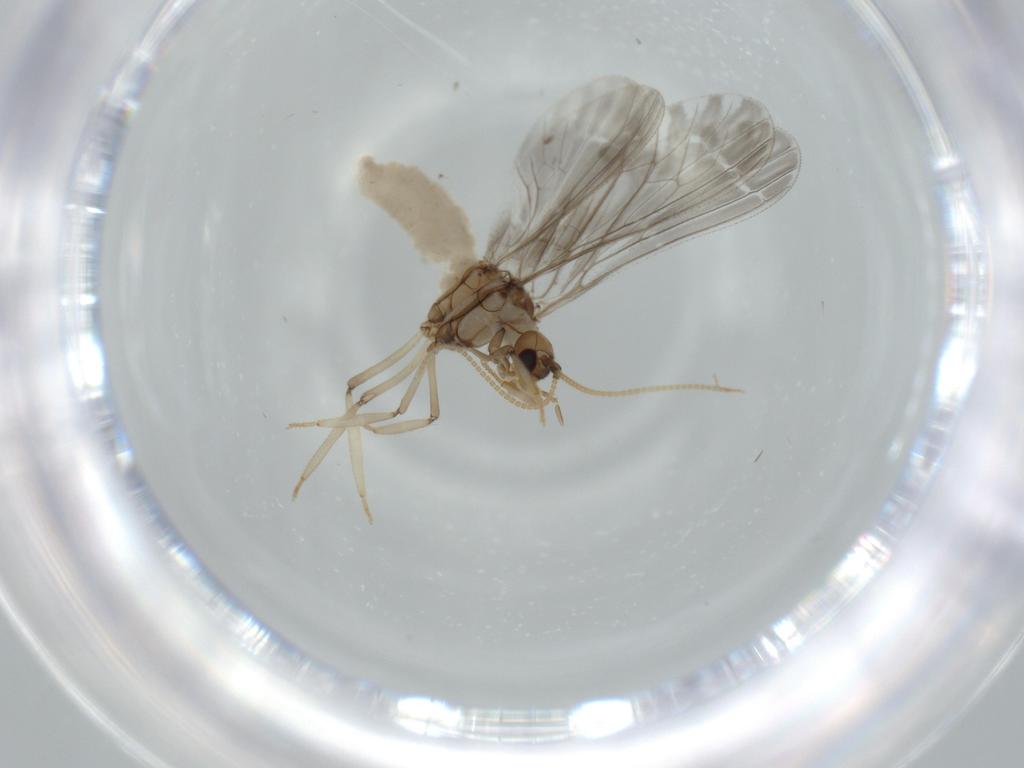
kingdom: Animalia
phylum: Arthropoda
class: Insecta
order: Neuroptera
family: Coniopterygidae
